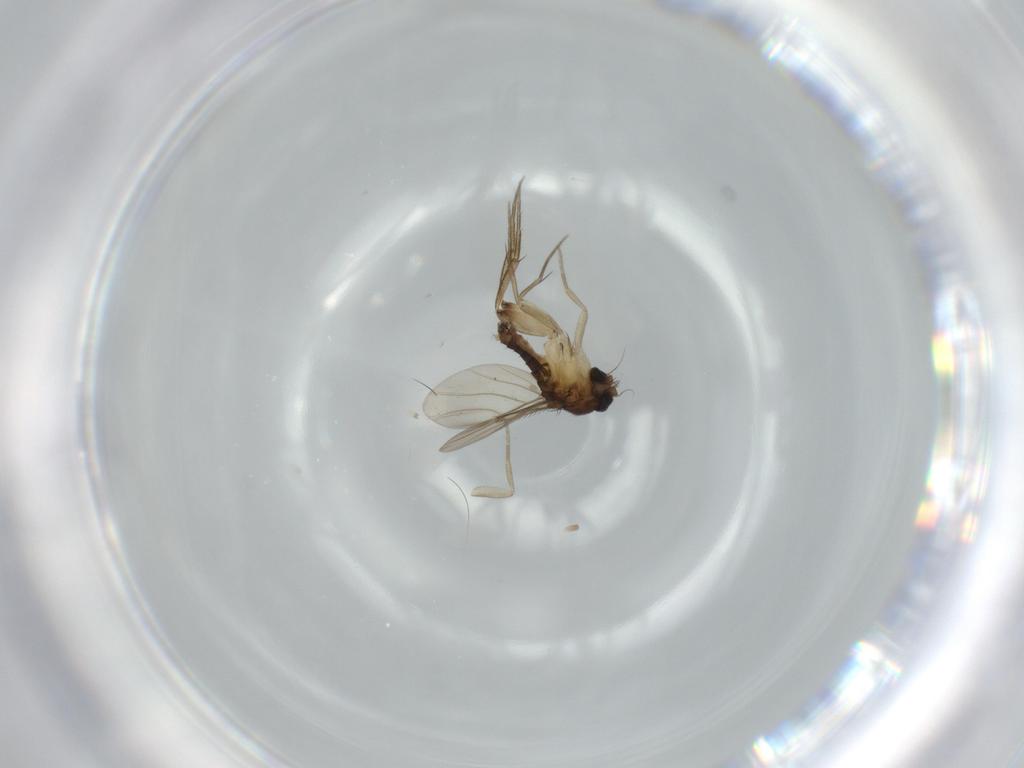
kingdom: Animalia
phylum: Arthropoda
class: Insecta
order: Diptera
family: Phoridae
